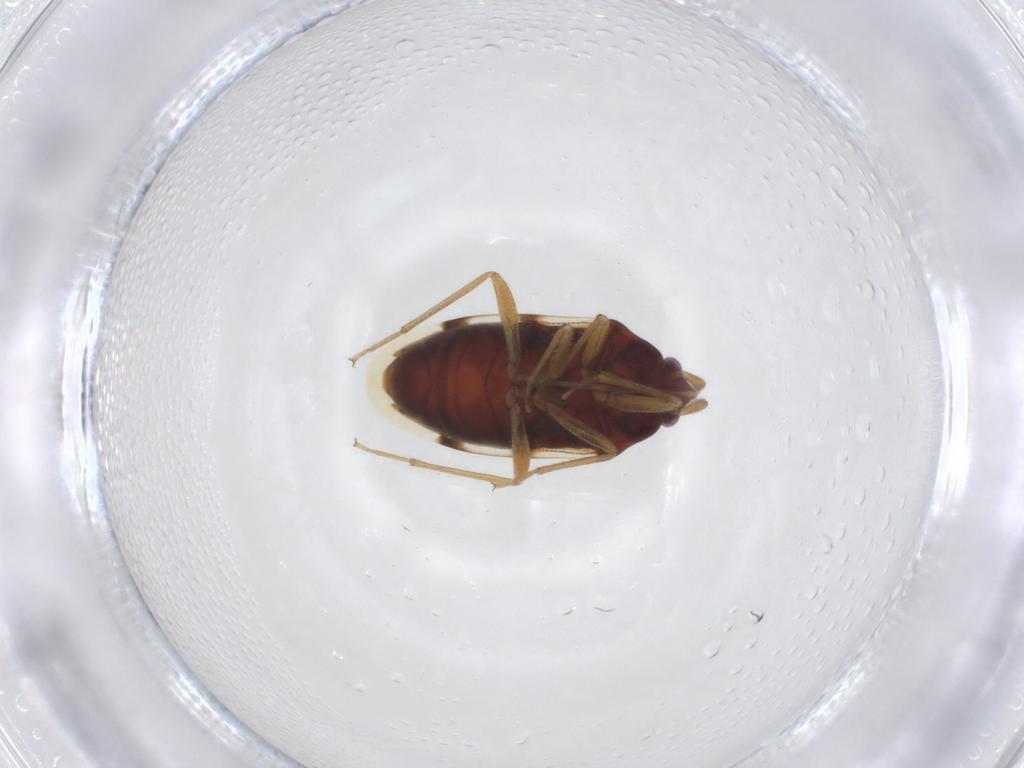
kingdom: Animalia
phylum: Arthropoda
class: Insecta
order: Hemiptera
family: Rhyparochromidae
